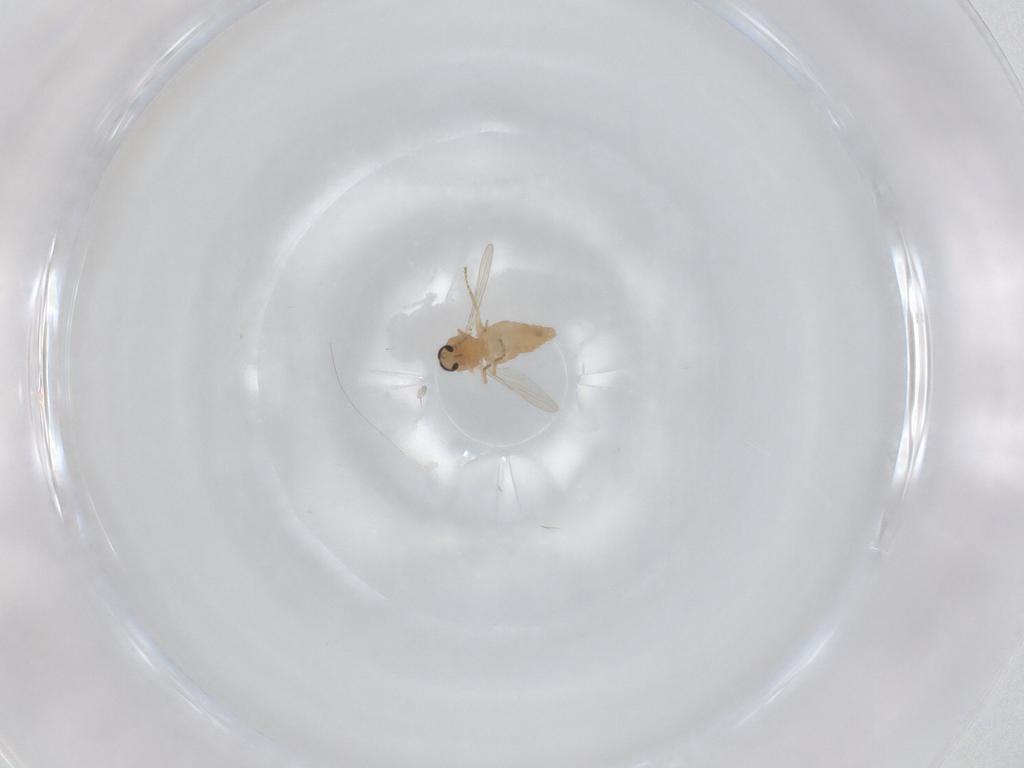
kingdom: Animalia
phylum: Arthropoda
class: Insecta
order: Diptera
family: Ceratopogonidae
